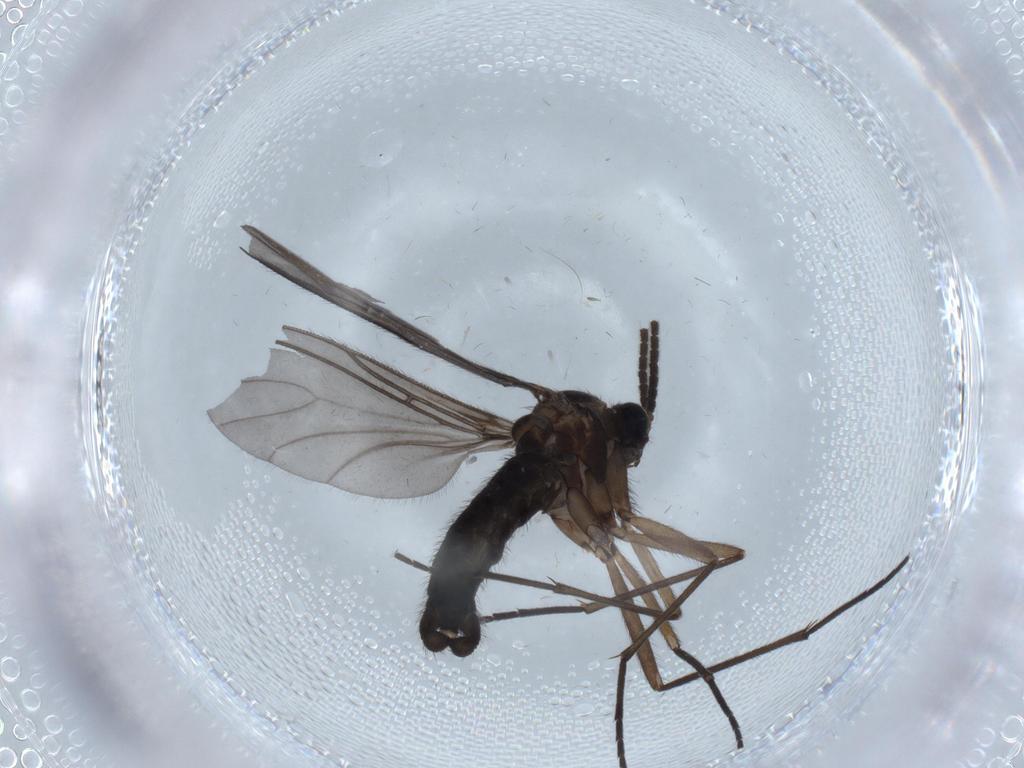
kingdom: Animalia
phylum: Arthropoda
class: Insecta
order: Diptera
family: Sciaridae
